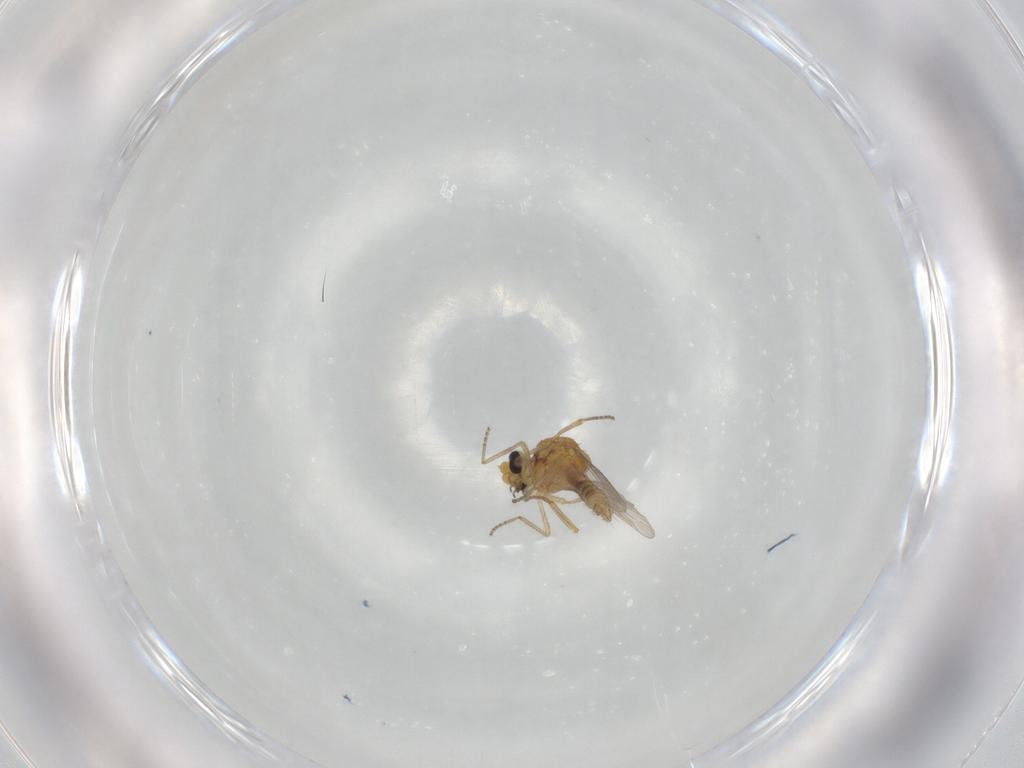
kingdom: Animalia
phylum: Arthropoda
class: Insecta
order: Diptera
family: Ceratopogonidae
